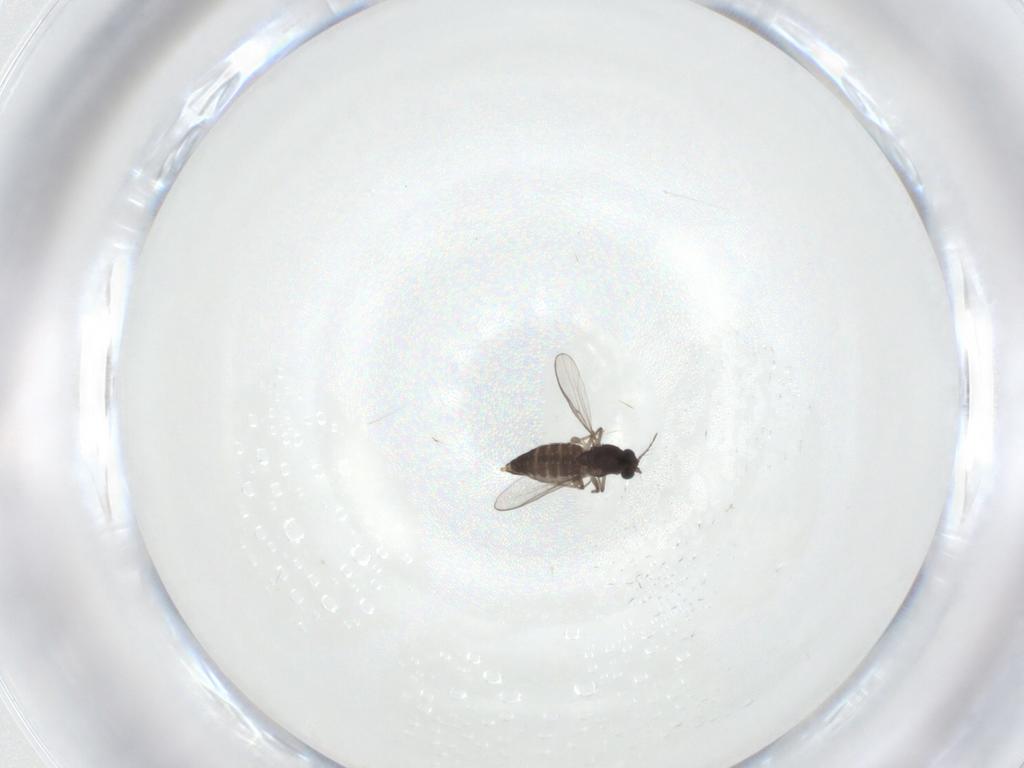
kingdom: Animalia
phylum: Arthropoda
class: Insecta
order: Diptera
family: Chironomidae
